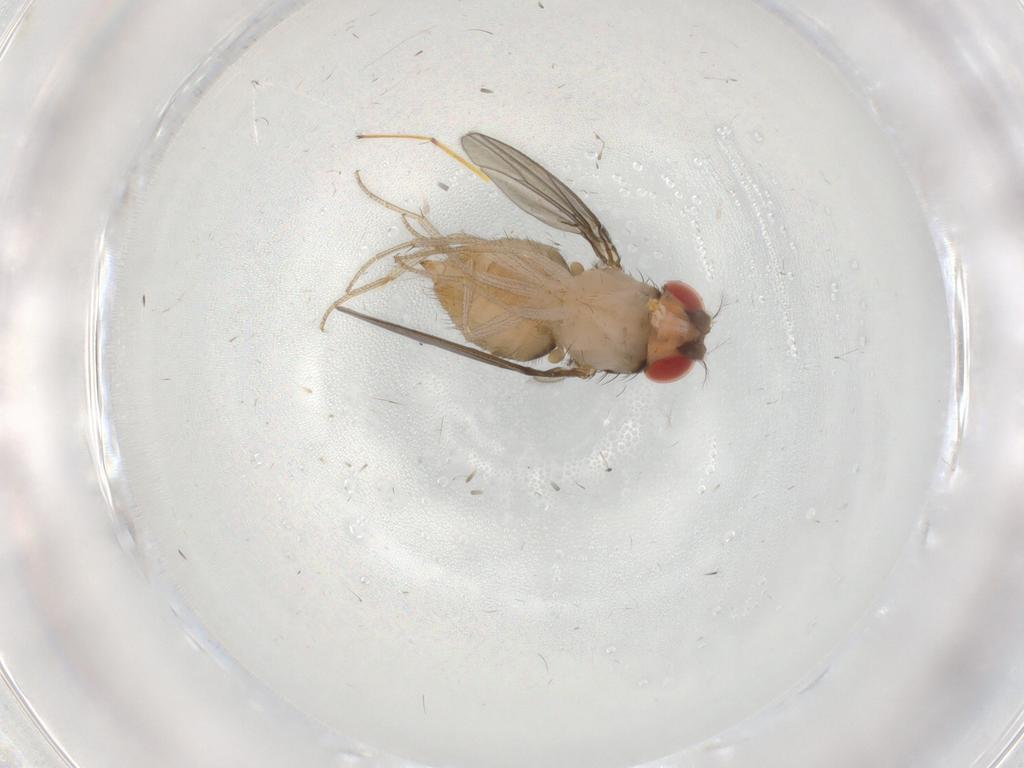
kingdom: Animalia
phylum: Arthropoda
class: Insecta
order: Diptera
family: Drosophilidae
